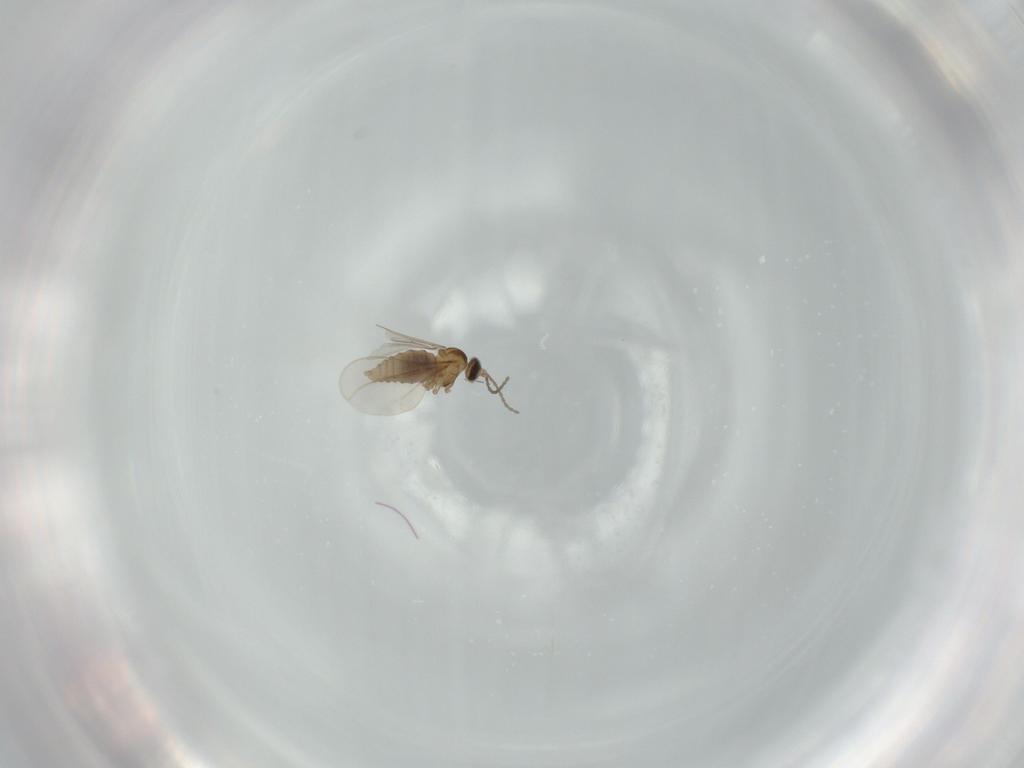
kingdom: Animalia
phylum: Arthropoda
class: Insecta
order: Diptera
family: Cecidomyiidae
